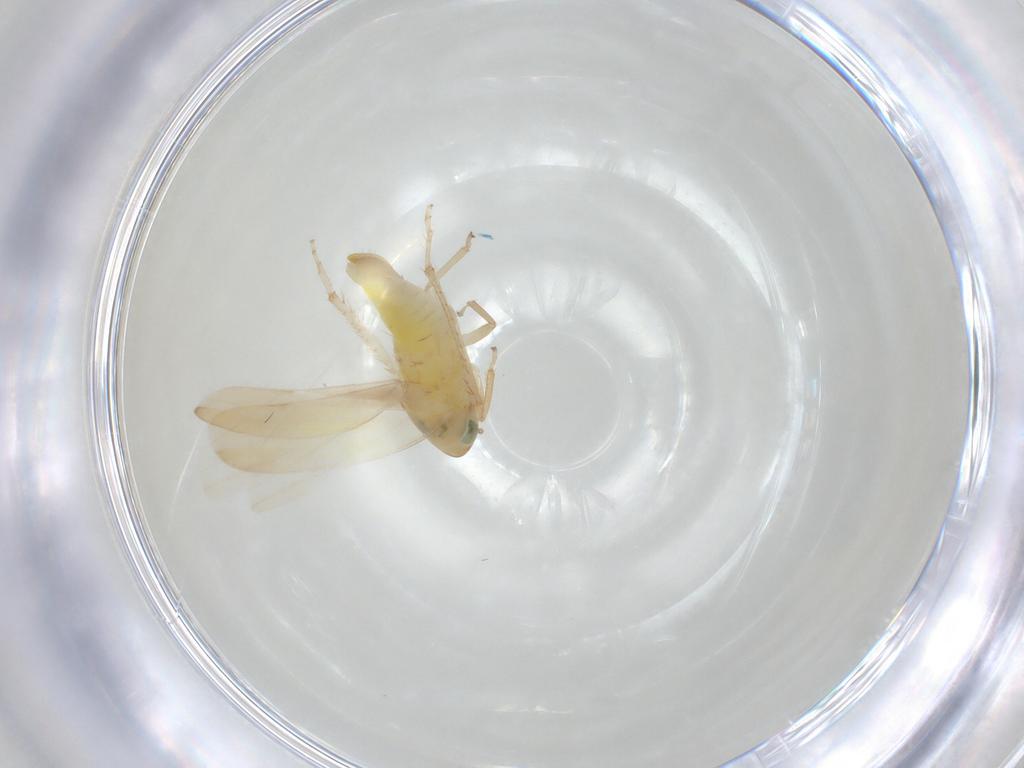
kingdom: Animalia
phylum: Arthropoda
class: Insecta
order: Hemiptera
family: Cicadellidae
